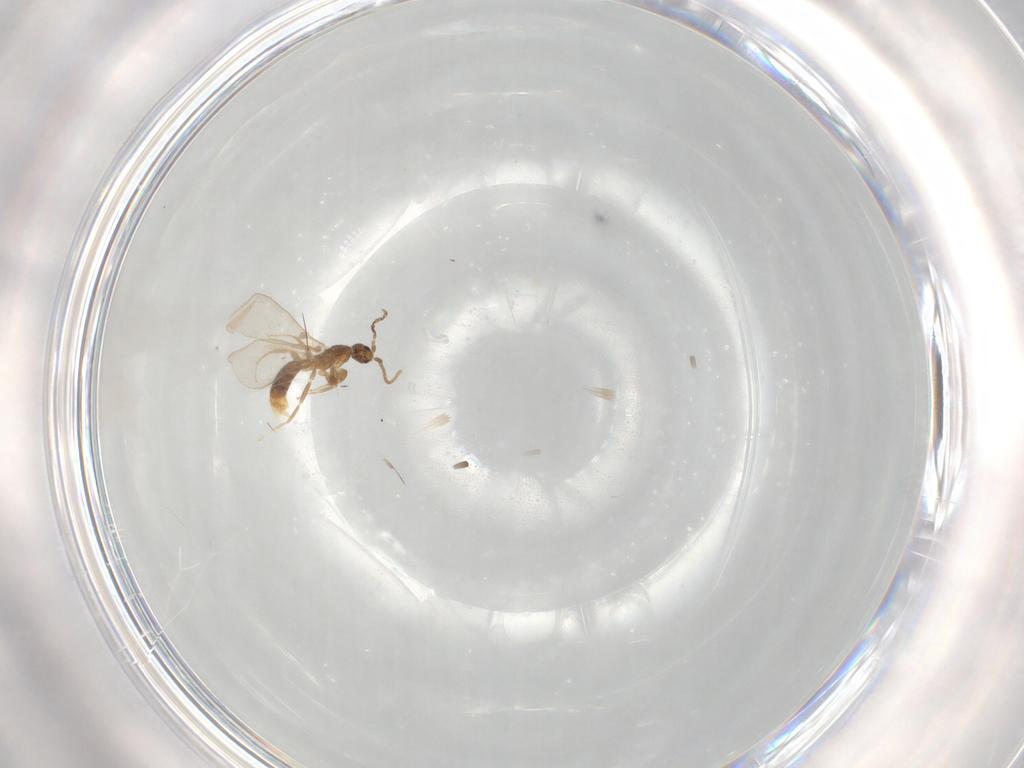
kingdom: Animalia
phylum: Arthropoda
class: Insecta
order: Hymenoptera
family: Formicidae
